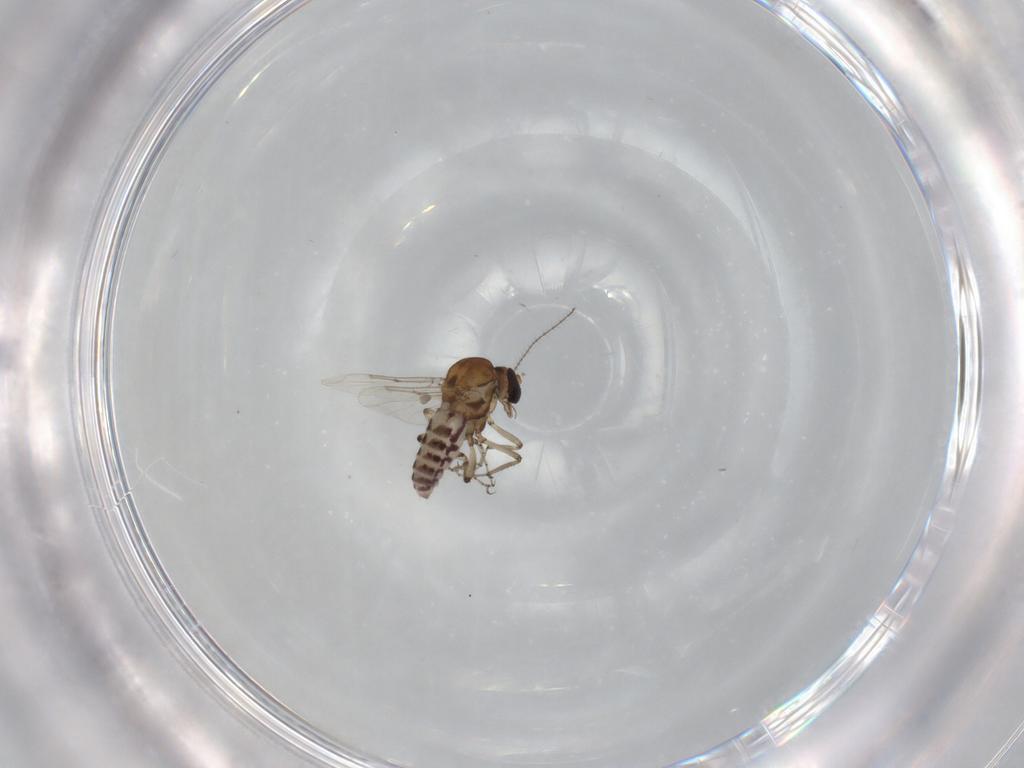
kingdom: Animalia
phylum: Arthropoda
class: Insecta
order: Diptera
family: Ceratopogonidae
